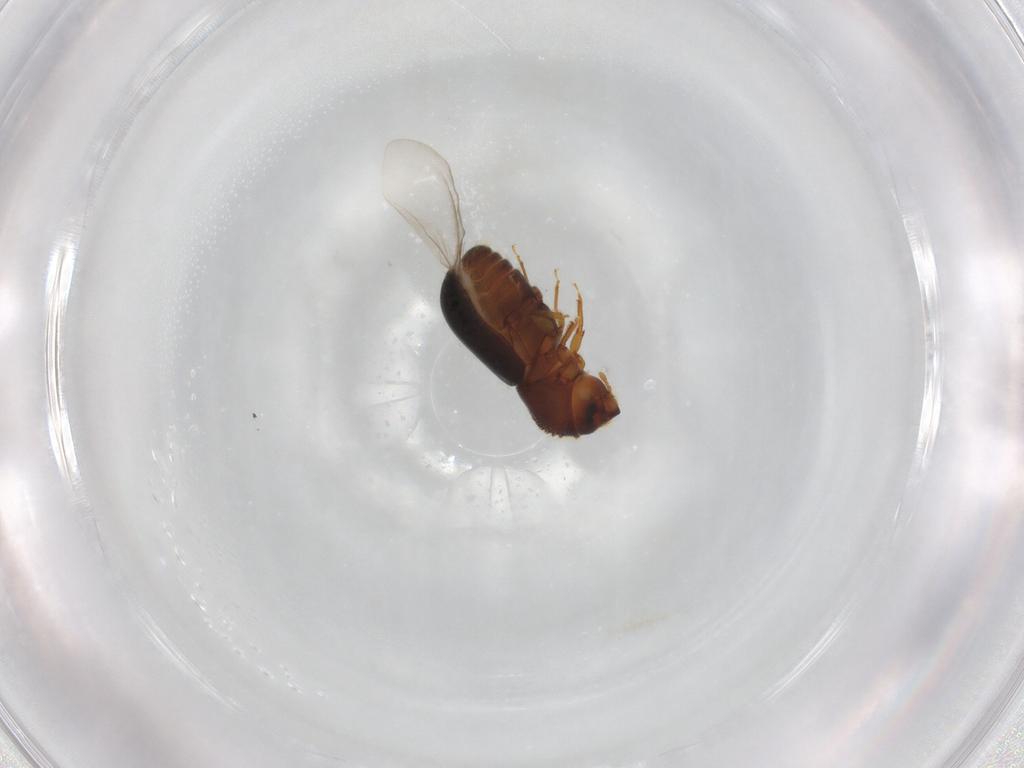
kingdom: Animalia
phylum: Arthropoda
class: Insecta
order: Coleoptera
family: Curculionidae
